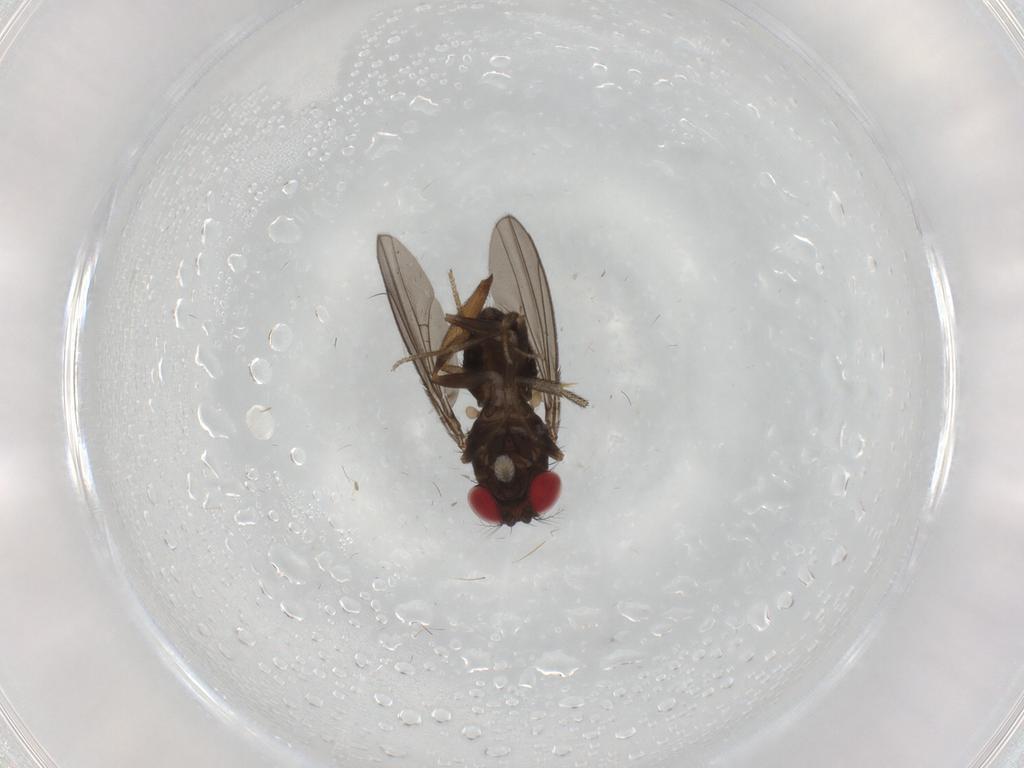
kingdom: Animalia
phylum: Arthropoda
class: Insecta
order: Diptera
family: Drosophilidae
